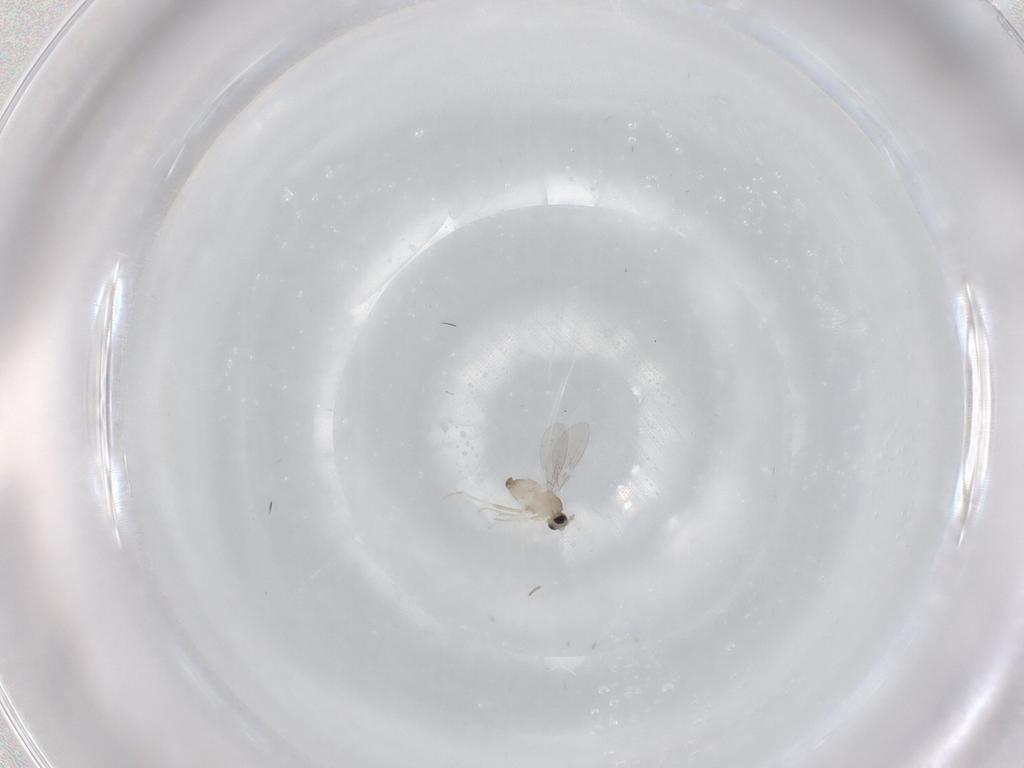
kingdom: Animalia
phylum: Arthropoda
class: Insecta
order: Diptera
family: Cecidomyiidae
